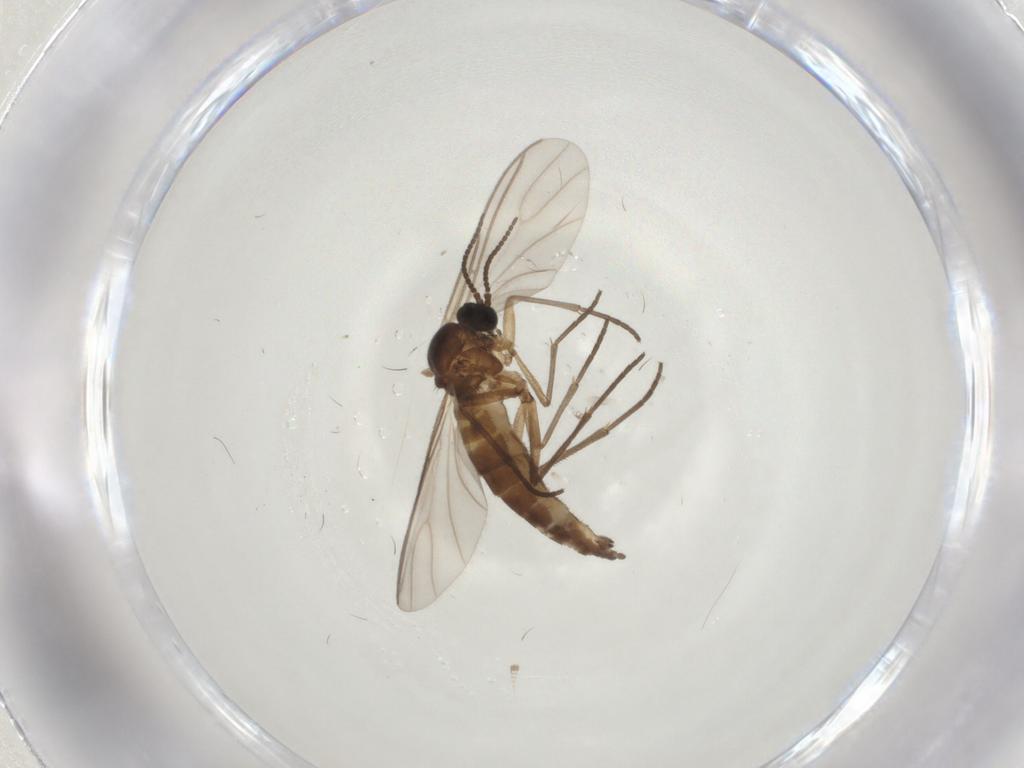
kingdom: Animalia
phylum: Arthropoda
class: Insecta
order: Diptera
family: Sciaridae
